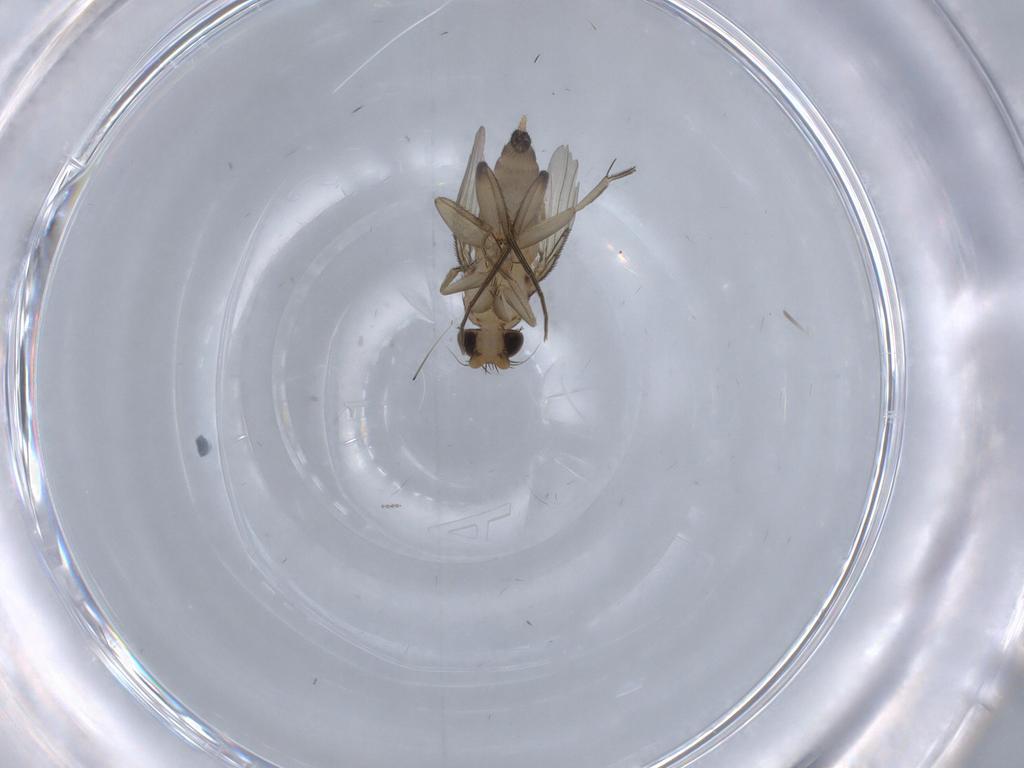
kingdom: Animalia
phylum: Arthropoda
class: Insecta
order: Diptera
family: Chironomidae
